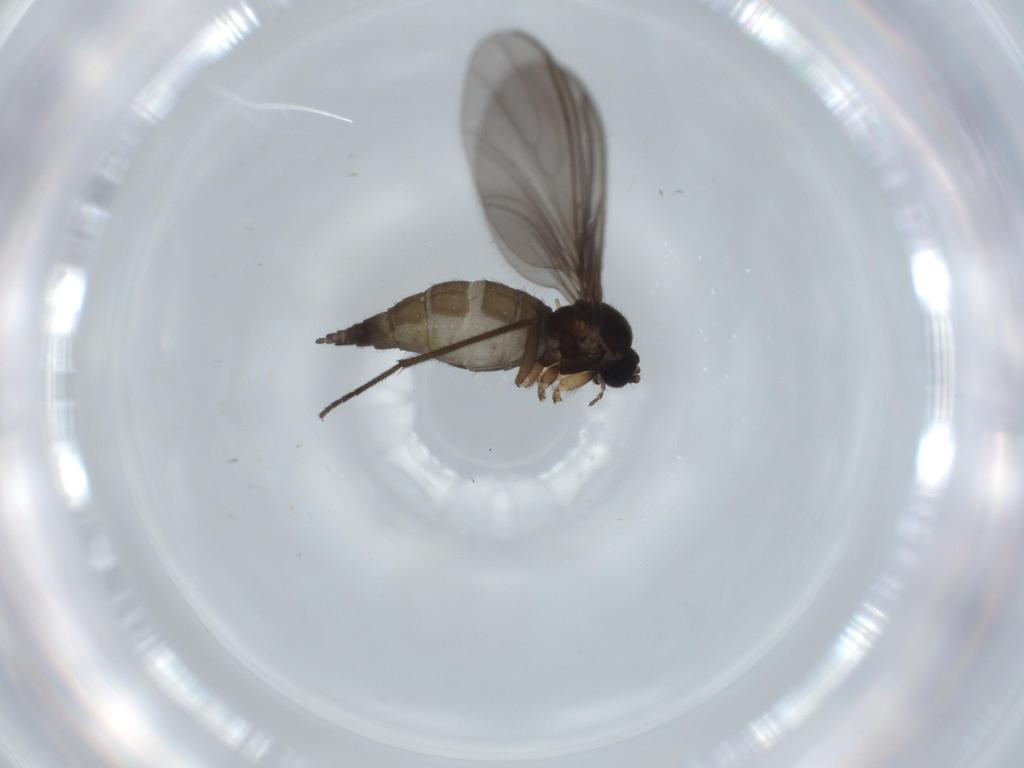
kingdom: Animalia
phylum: Arthropoda
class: Insecta
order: Diptera
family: Sciaridae
